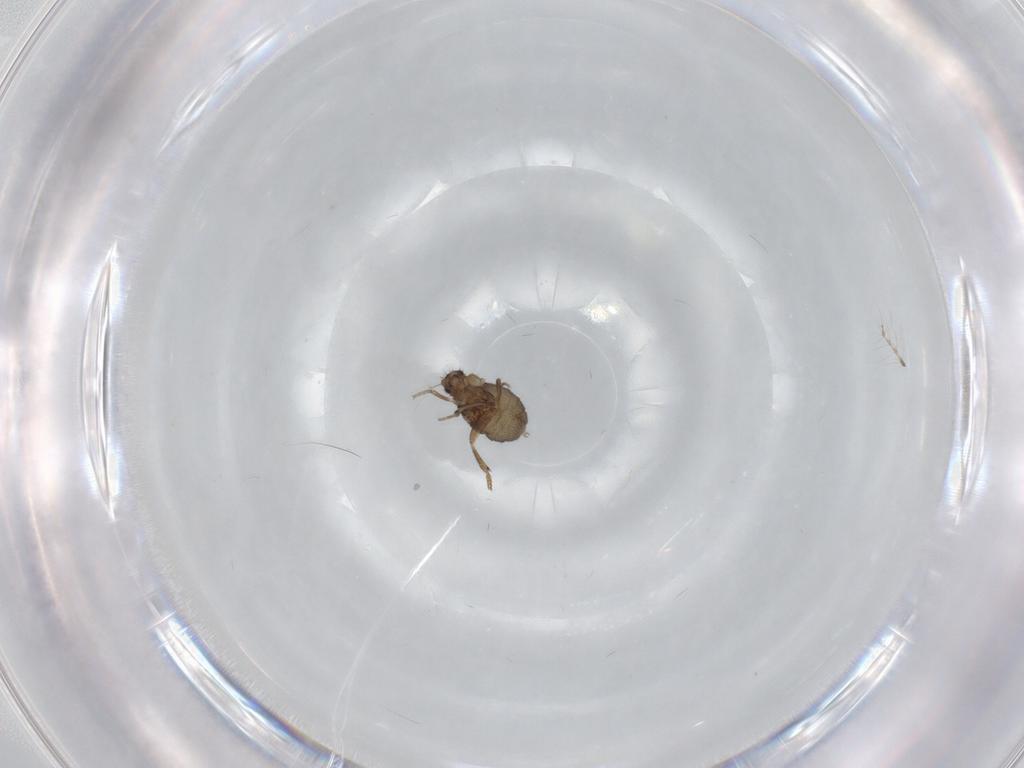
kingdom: Animalia
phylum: Arthropoda
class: Insecta
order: Diptera
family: Phoridae
